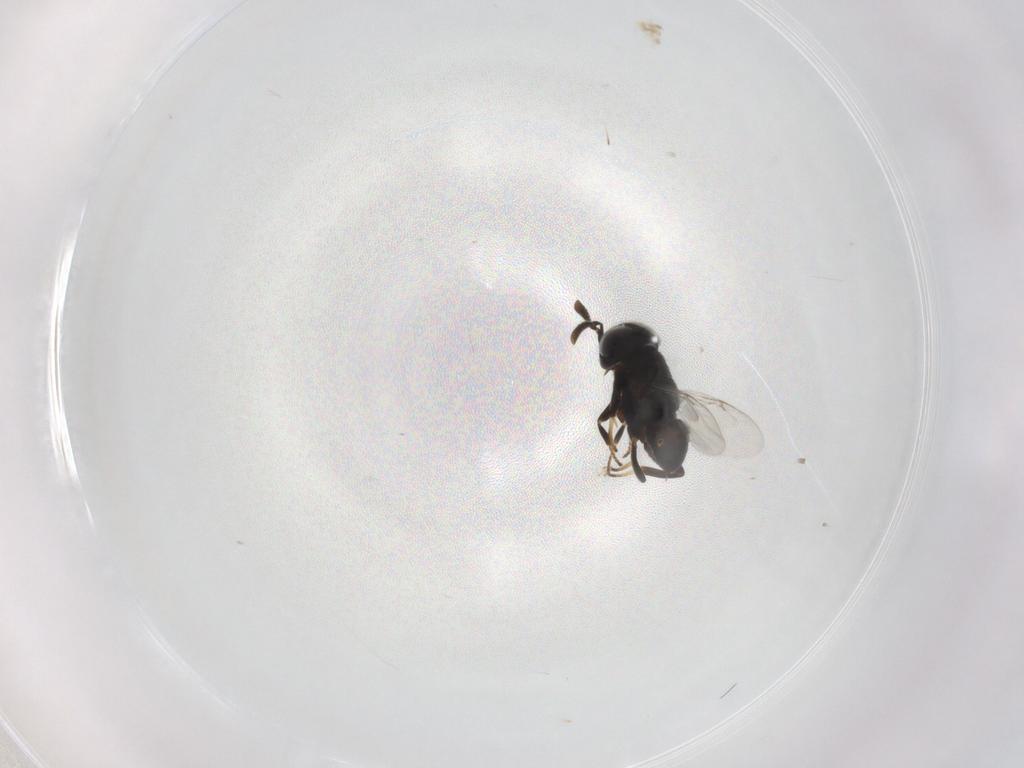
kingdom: Animalia
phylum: Arthropoda
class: Insecta
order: Hymenoptera
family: Encyrtidae
